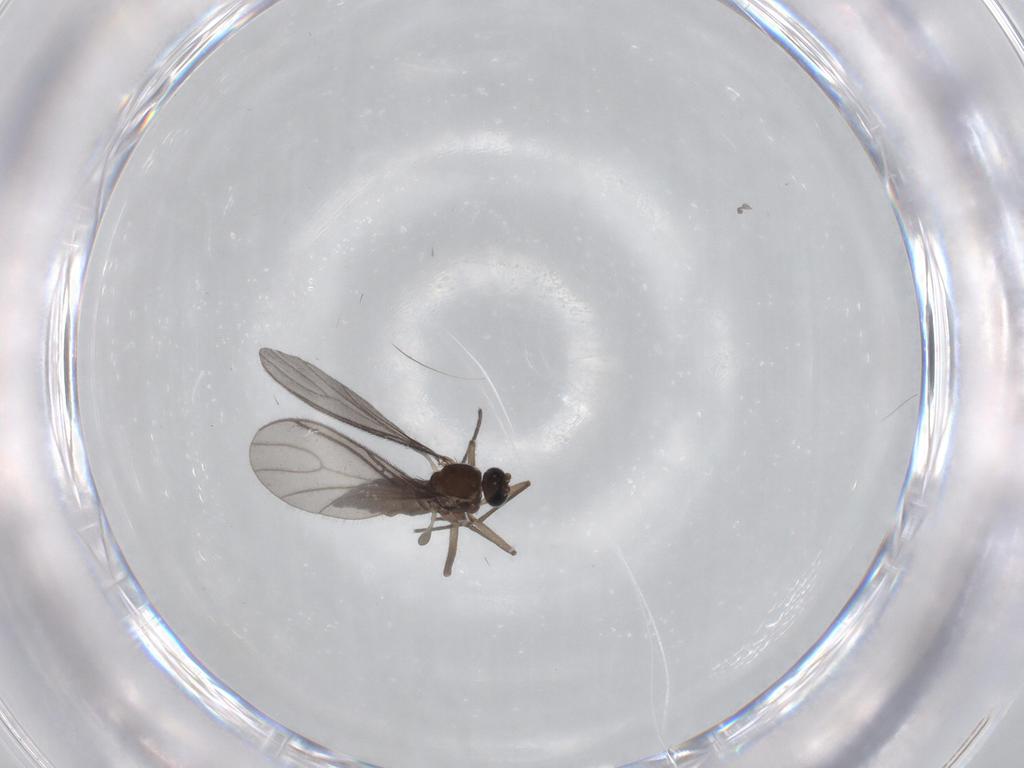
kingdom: Animalia
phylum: Arthropoda
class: Insecta
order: Diptera
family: Sciaridae
